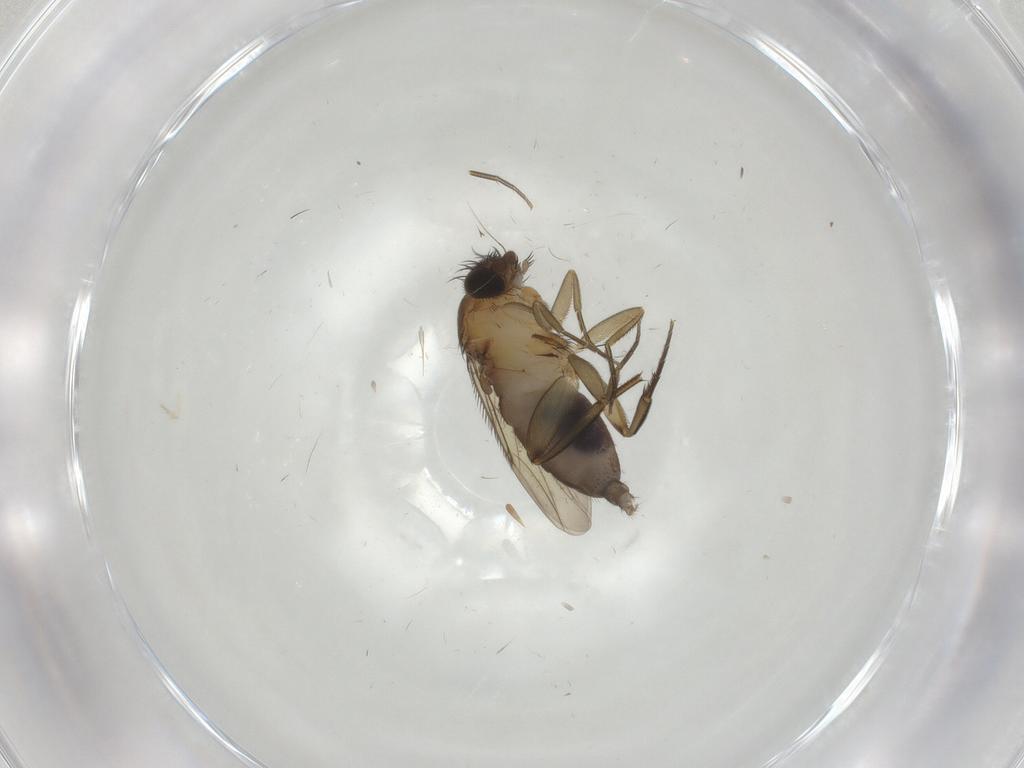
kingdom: Animalia
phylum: Arthropoda
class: Insecta
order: Diptera
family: Phoridae
